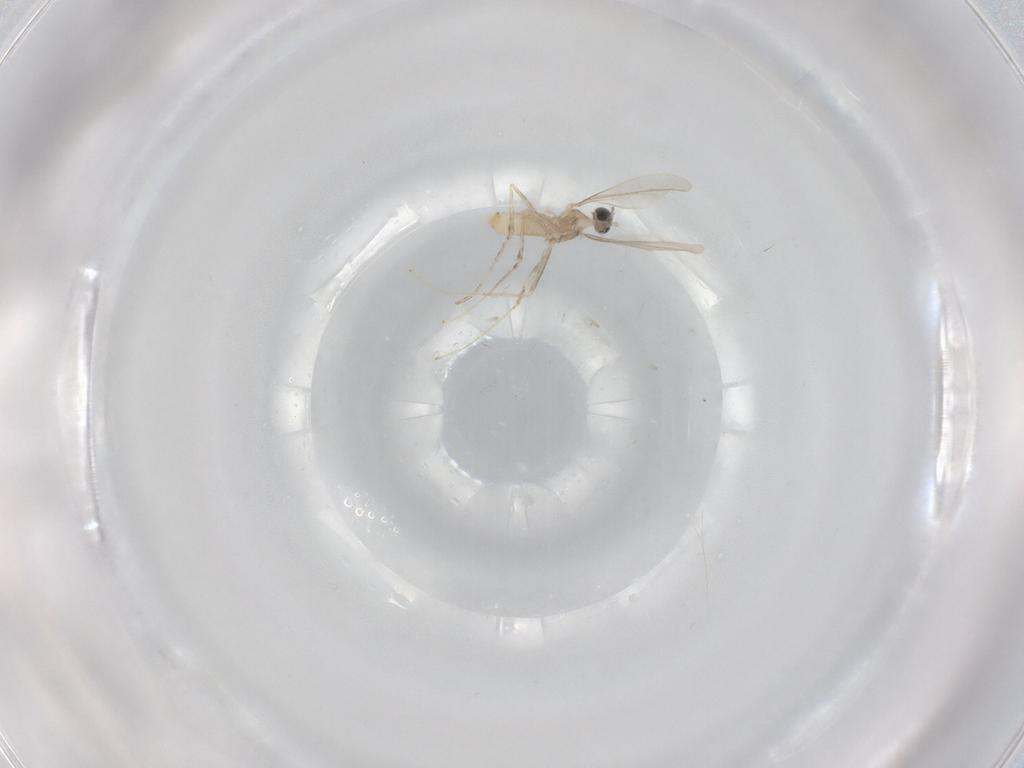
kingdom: Animalia
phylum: Arthropoda
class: Insecta
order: Diptera
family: Cecidomyiidae
